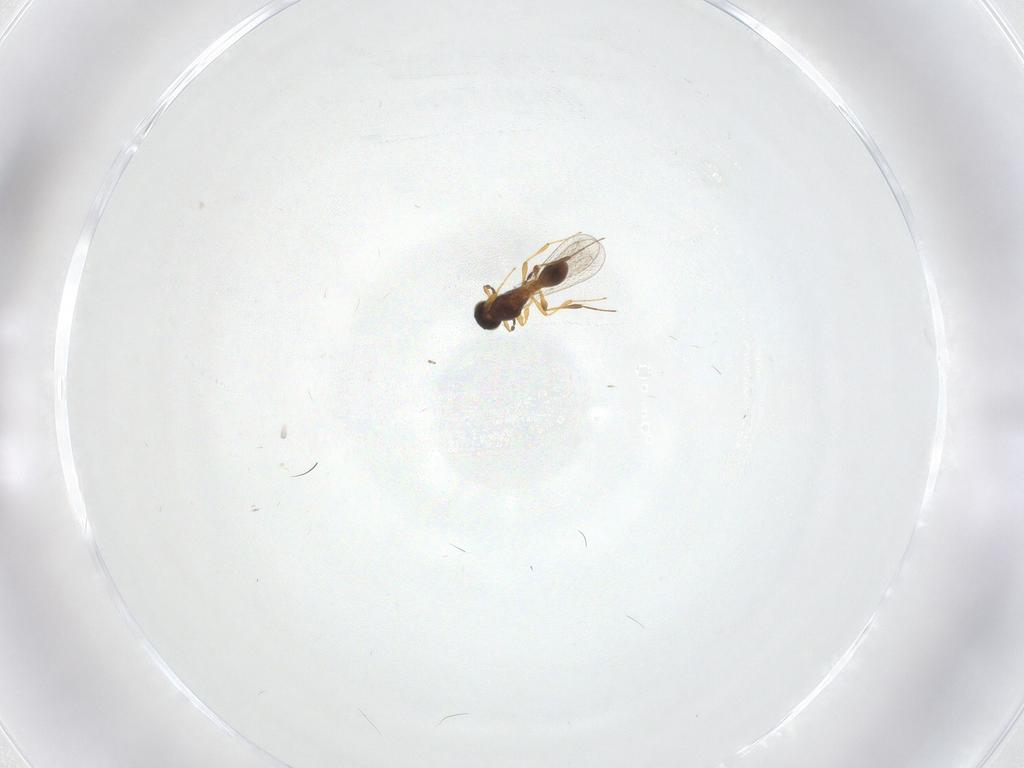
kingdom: Animalia
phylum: Arthropoda
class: Insecta
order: Hymenoptera
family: Platygastridae
